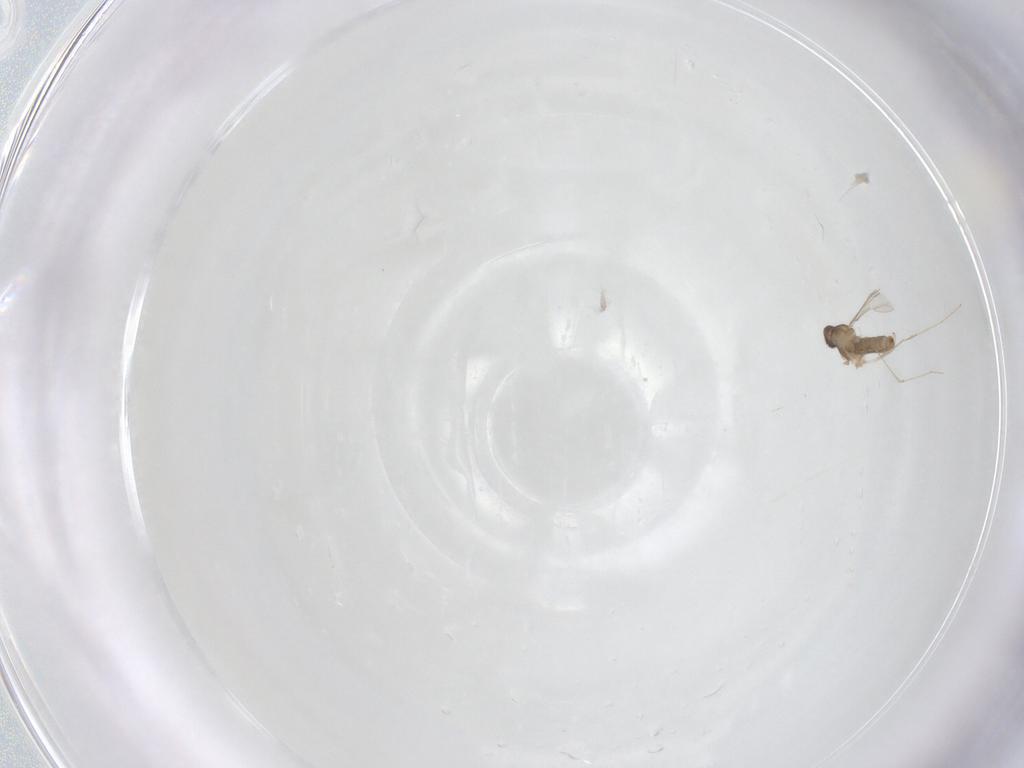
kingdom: Animalia
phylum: Arthropoda
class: Insecta
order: Diptera
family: Cecidomyiidae
